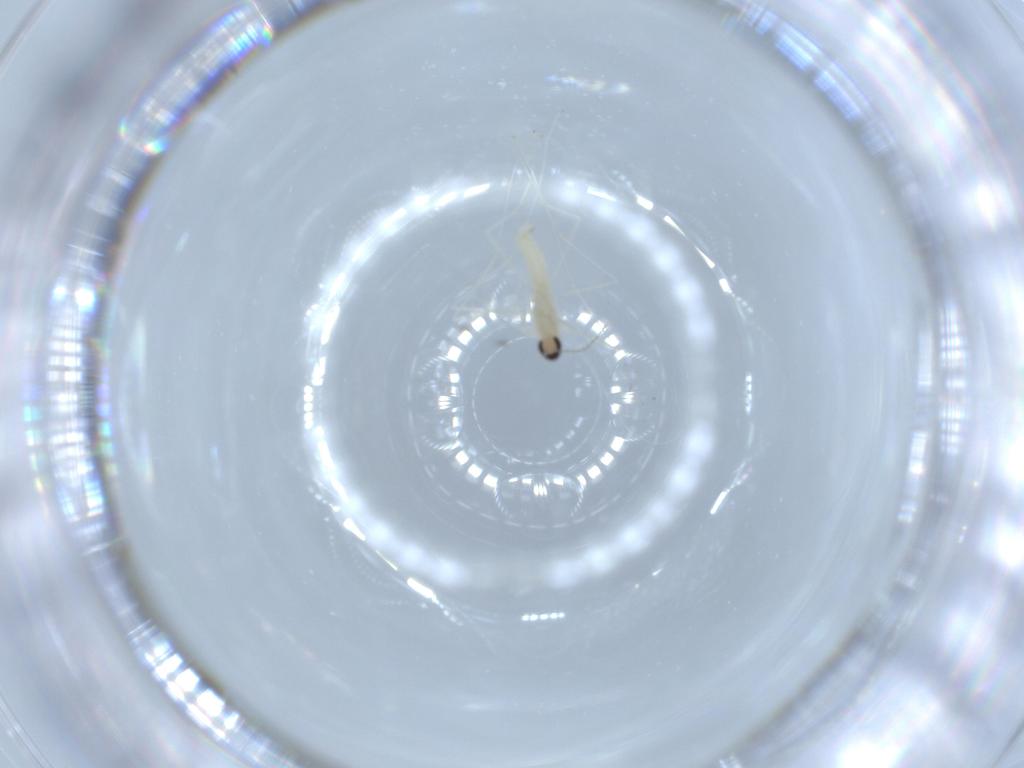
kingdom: Animalia
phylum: Arthropoda
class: Insecta
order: Diptera
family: Cecidomyiidae
